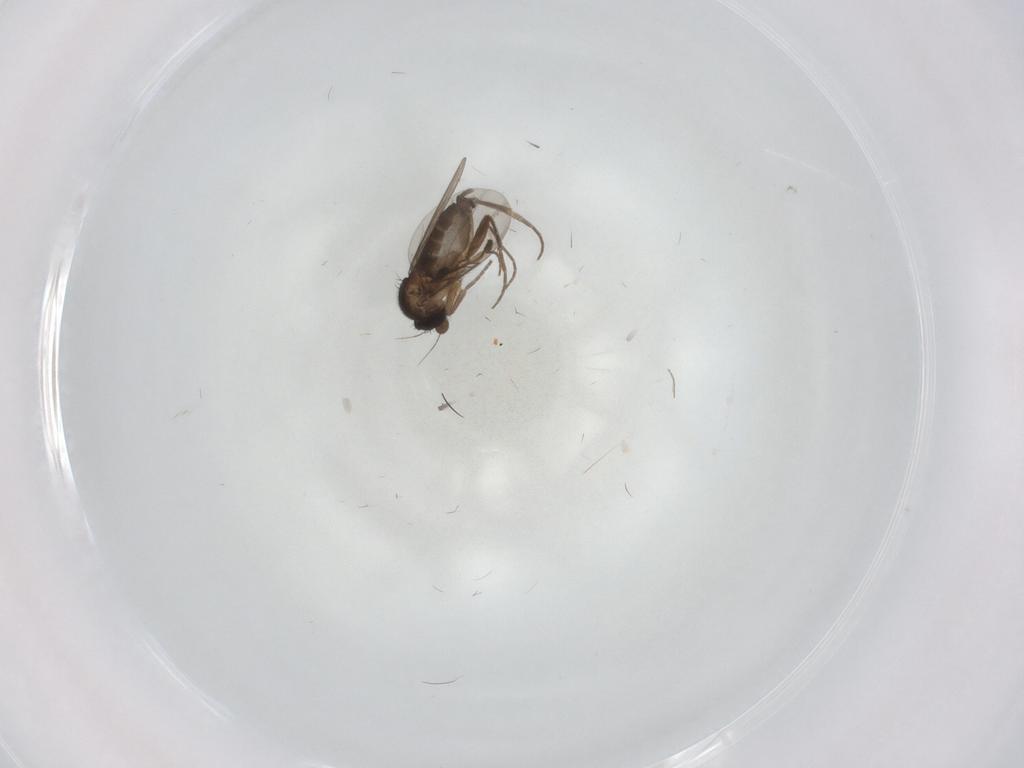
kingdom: Animalia
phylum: Arthropoda
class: Insecta
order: Diptera
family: Phoridae
